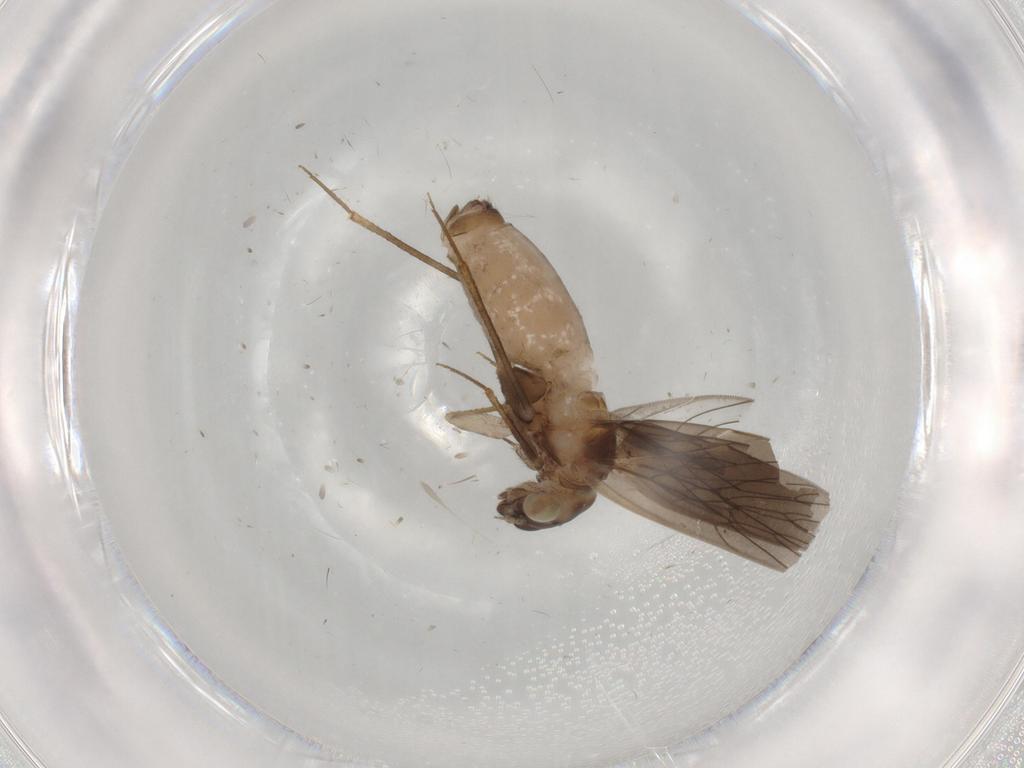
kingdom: Animalia
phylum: Arthropoda
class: Insecta
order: Psocodea
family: Lepidopsocidae
